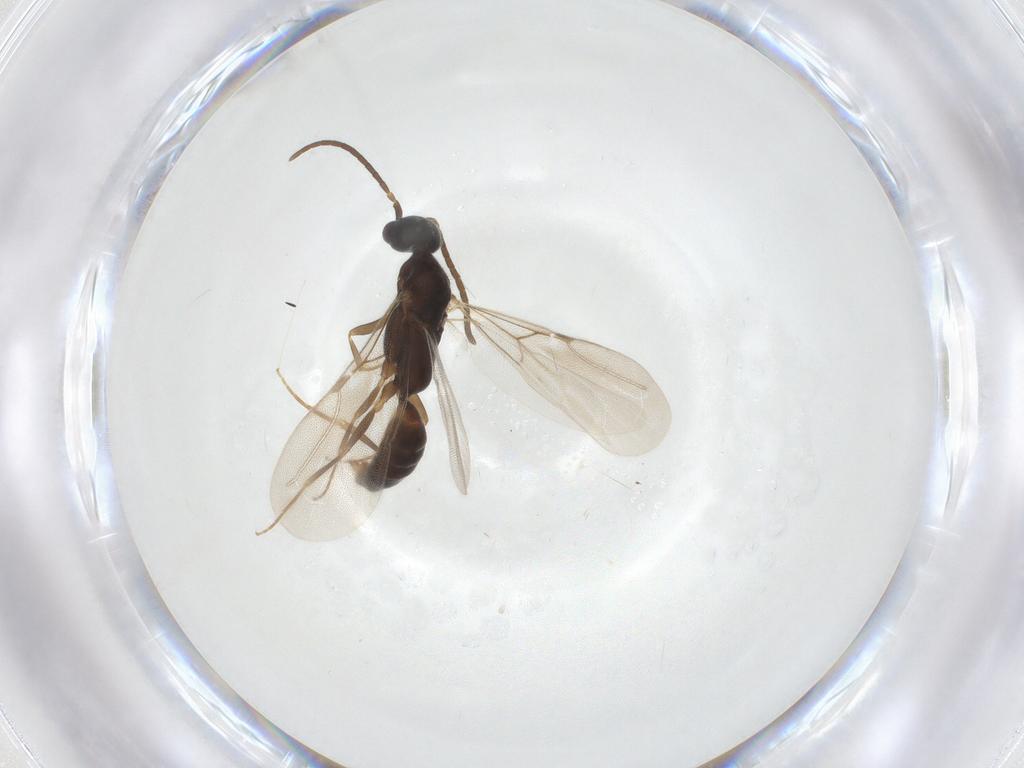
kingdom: Animalia
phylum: Arthropoda
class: Insecta
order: Hymenoptera
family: Bethylidae
